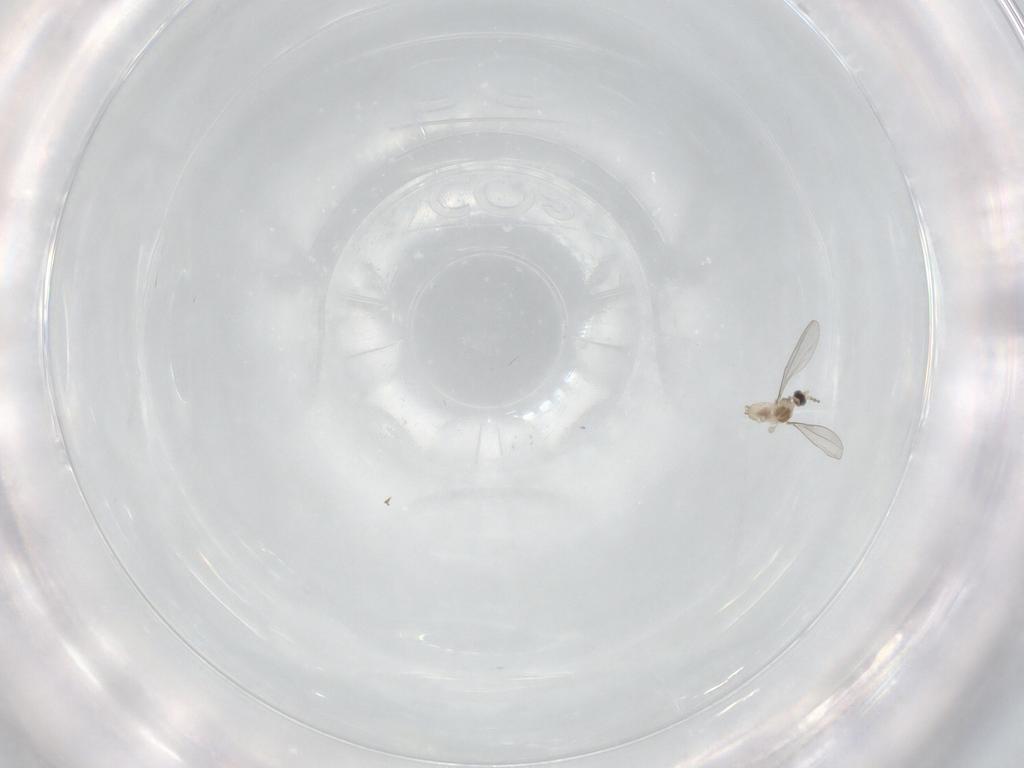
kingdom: Animalia
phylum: Arthropoda
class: Insecta
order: Diptera
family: Cecidomyiidae
